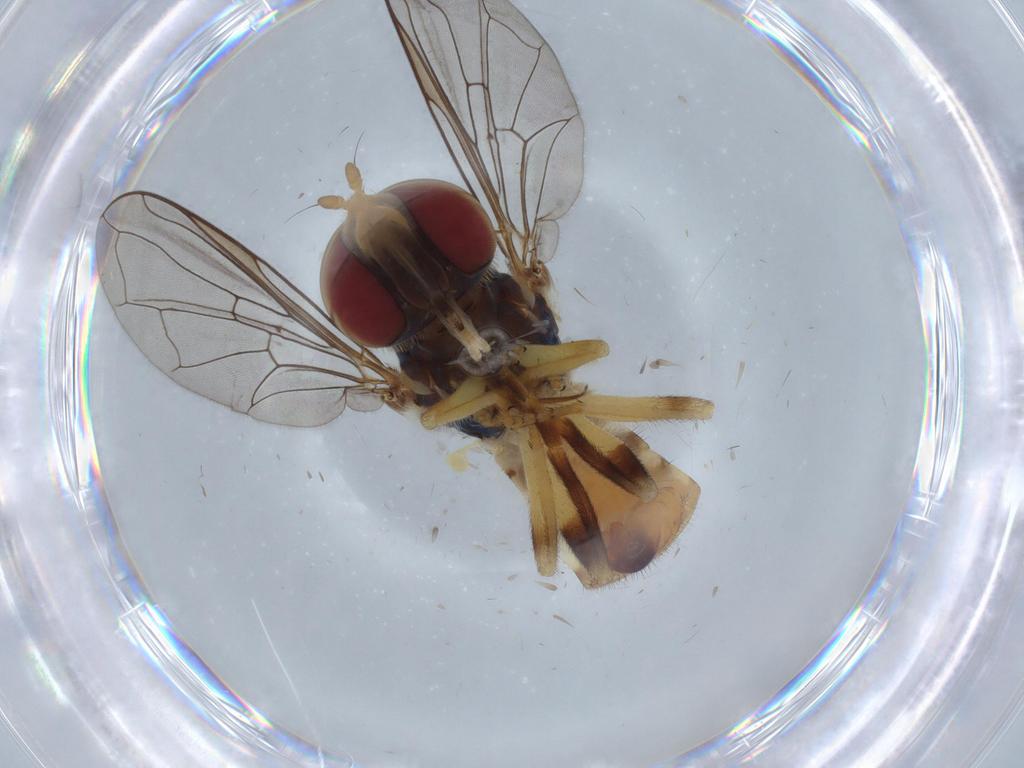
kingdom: Animalia
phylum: Arthropoda
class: Insecta
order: Diptera
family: Syrphidae
